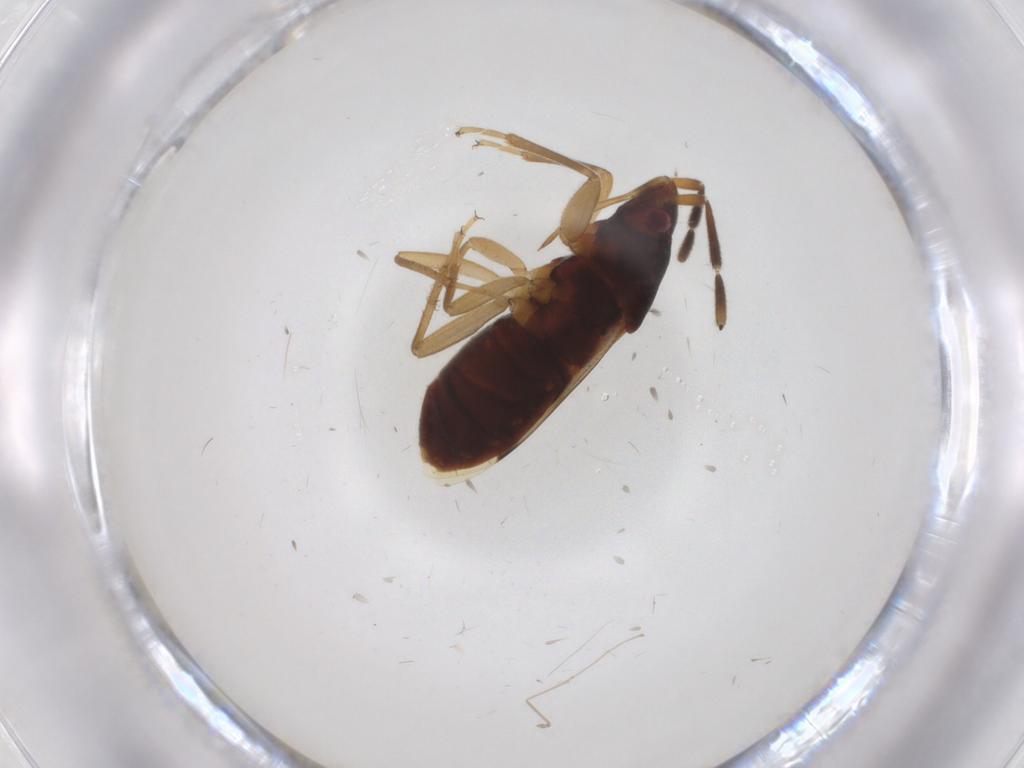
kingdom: Animalia
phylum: Arthropoda
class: Insecta
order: Hemiptera
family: Rhyparochromidae
